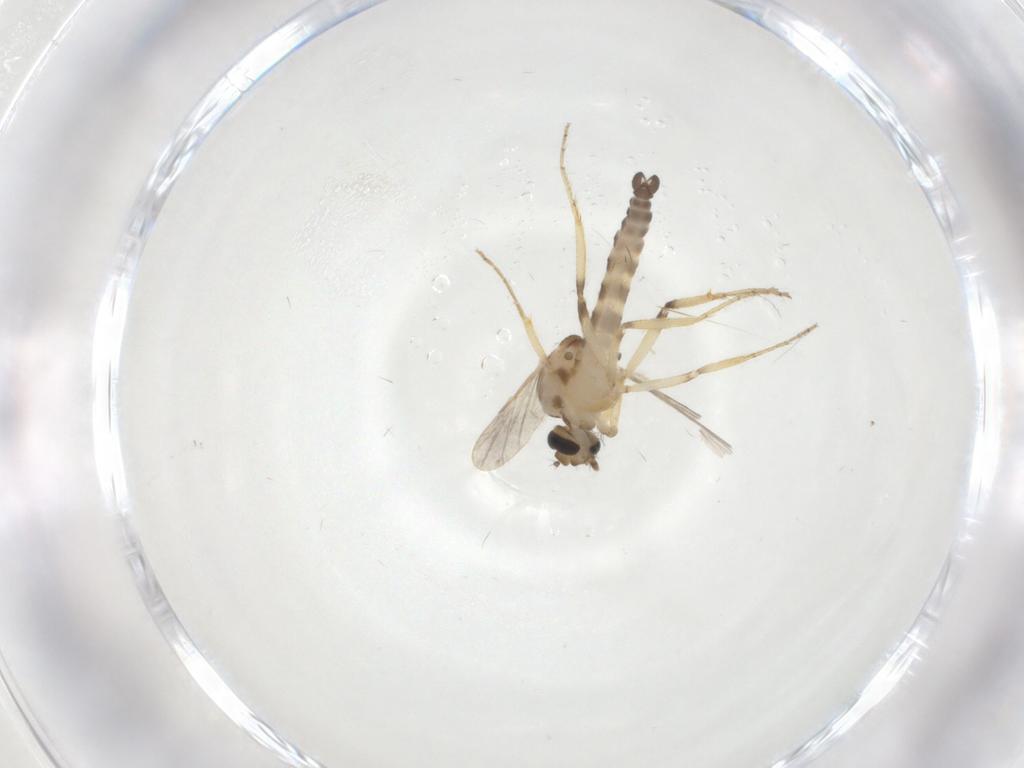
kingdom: Animalia
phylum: Arthropoda
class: Insecta
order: Diptera
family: Ceratopogonidae
